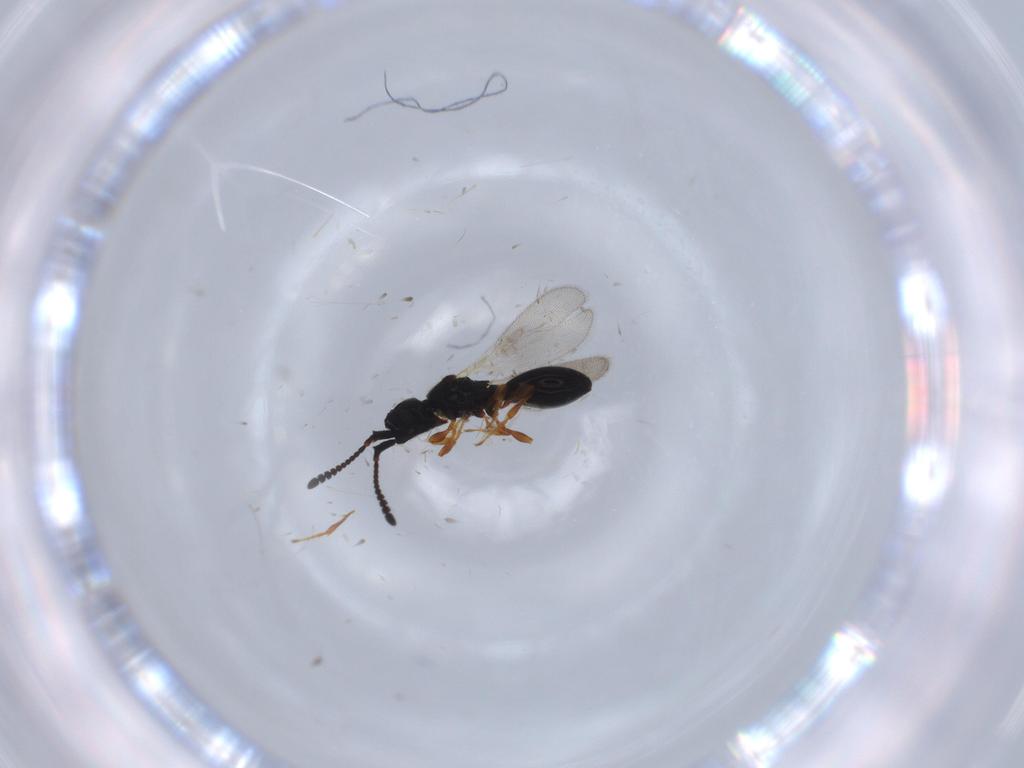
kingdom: Animalia
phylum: Arthropoda
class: Insecta
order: Hymenoptera
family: Diapriidae
